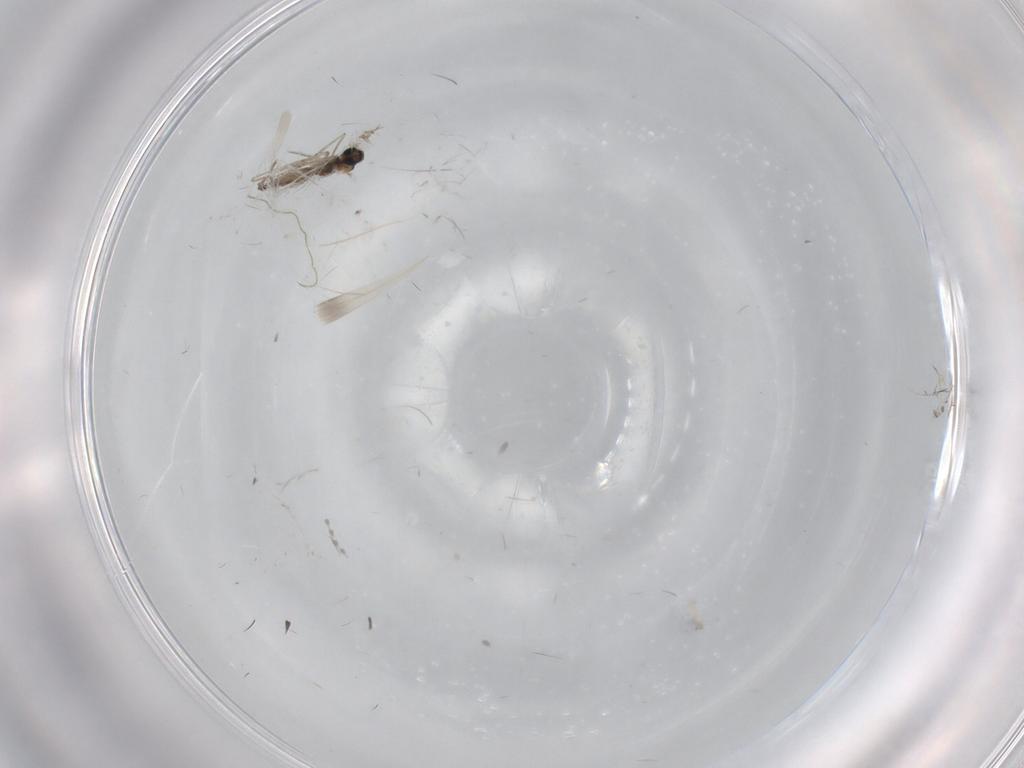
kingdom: Animalia
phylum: Arthropoda
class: Insecta
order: Diptera
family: Cecidomyiidae
